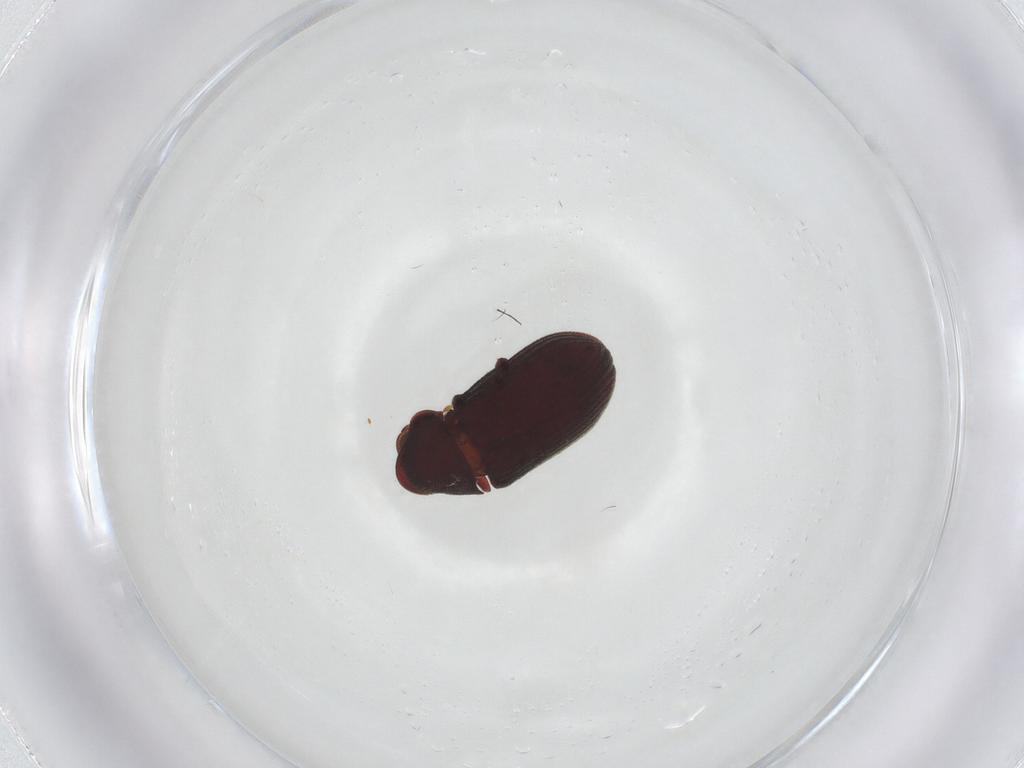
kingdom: Animalia
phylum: Arthropoda
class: Insecta
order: Coleoptera
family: Ptinidae
